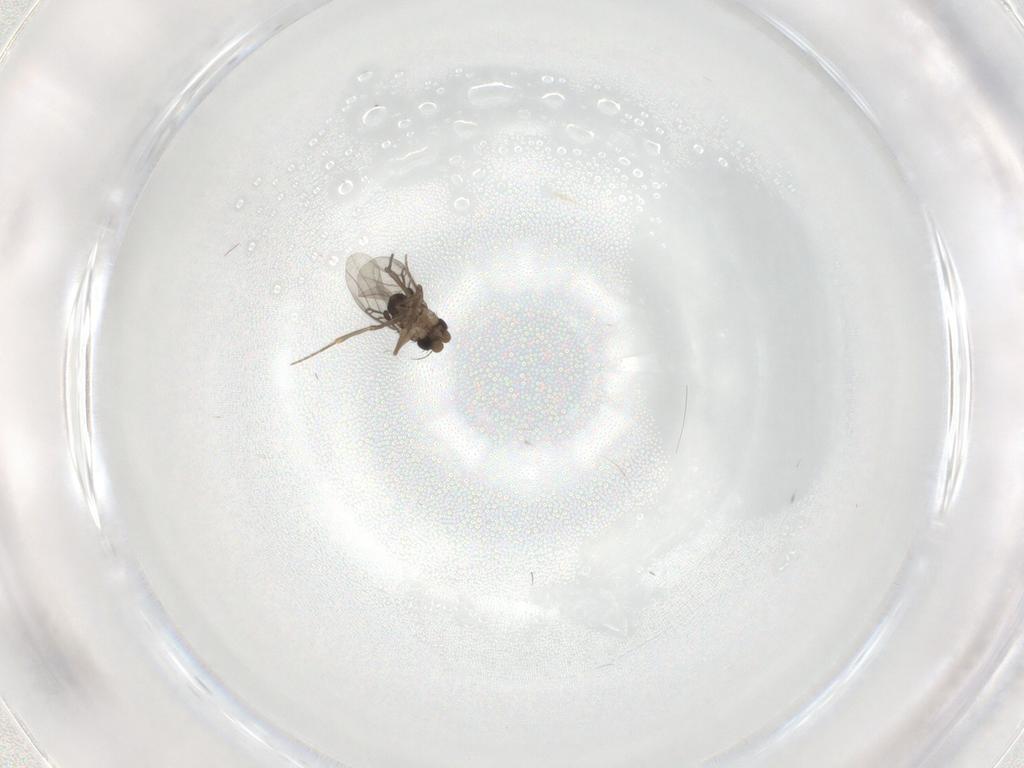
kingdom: Animalia
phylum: Arthropoda
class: Insecta
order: Diptera
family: Phoridae
